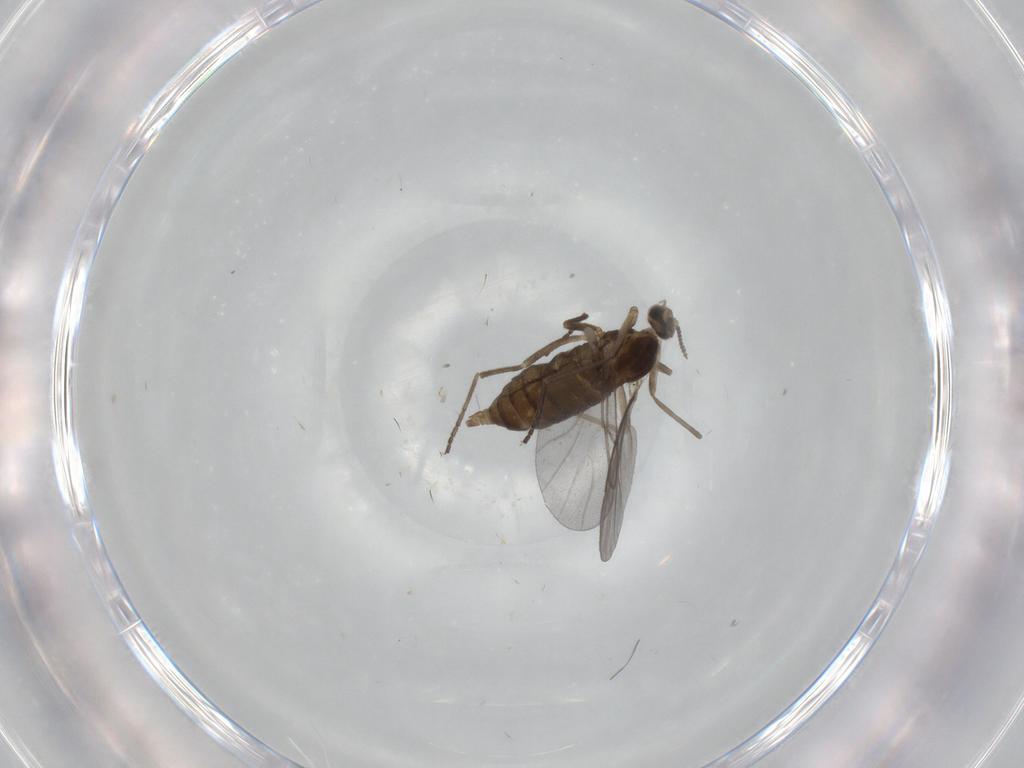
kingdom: Animalia
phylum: Arthropoda
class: Insecta
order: Diptera
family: Cecidomyiidae
